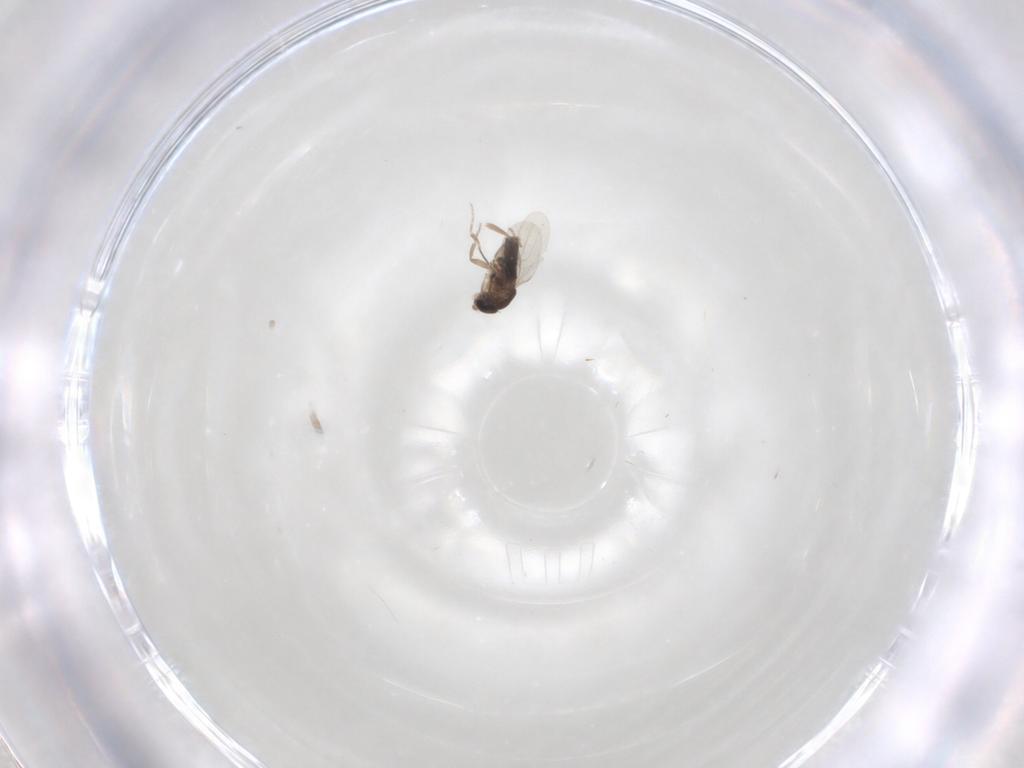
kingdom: Animalia
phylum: Arthropoda
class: Insecta
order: Diptera
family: Phoridae
